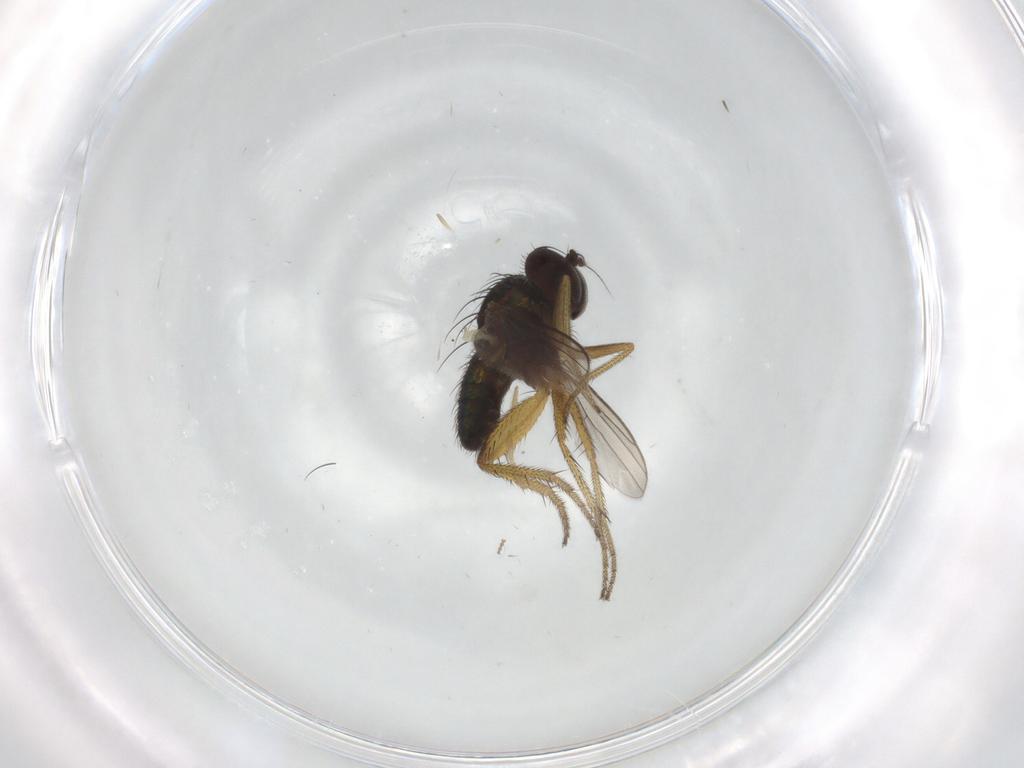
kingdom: Animalia
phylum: Arthropoda
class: Insecta
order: Diptera
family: Dolichopodidae
